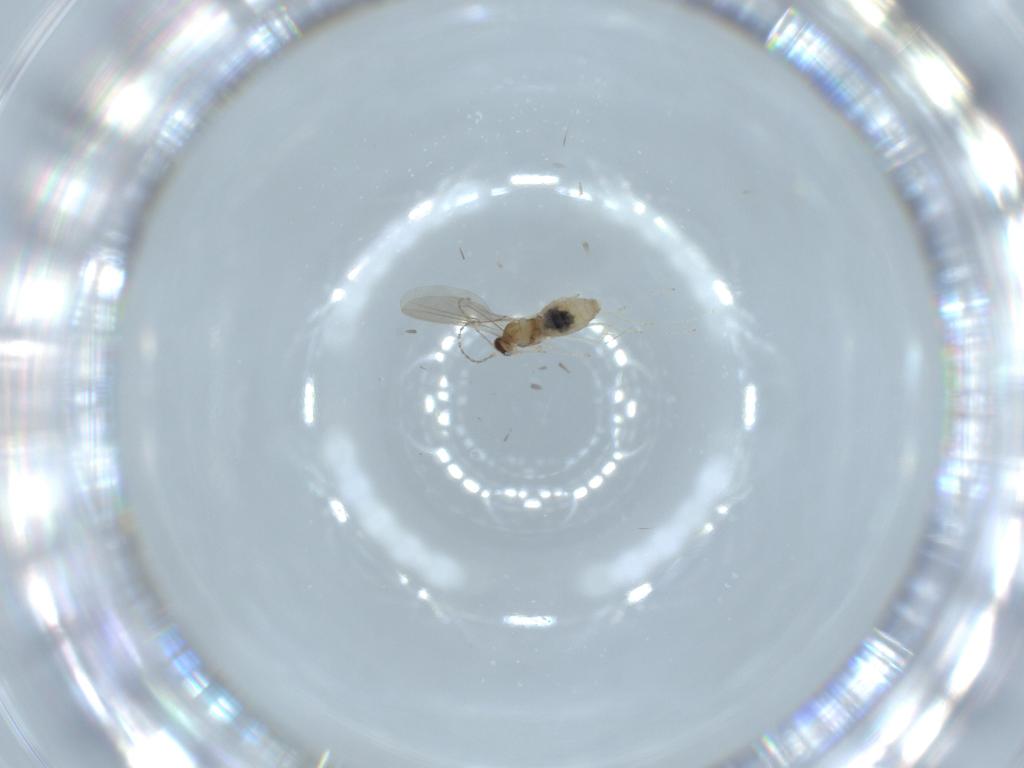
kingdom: Animalia
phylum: Arthropoda
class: Insecta
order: Diptera
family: Cecidomyiidae
